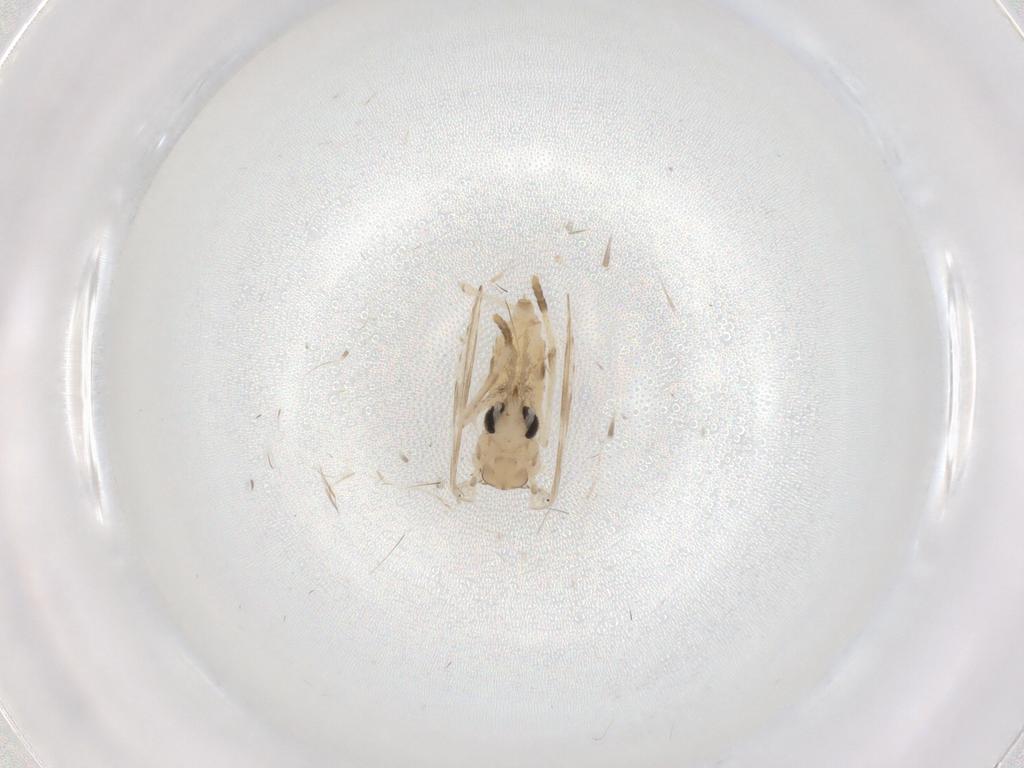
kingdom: Animalia
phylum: Arthropoda
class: Insecta
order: Diptera
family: Psychodidae
